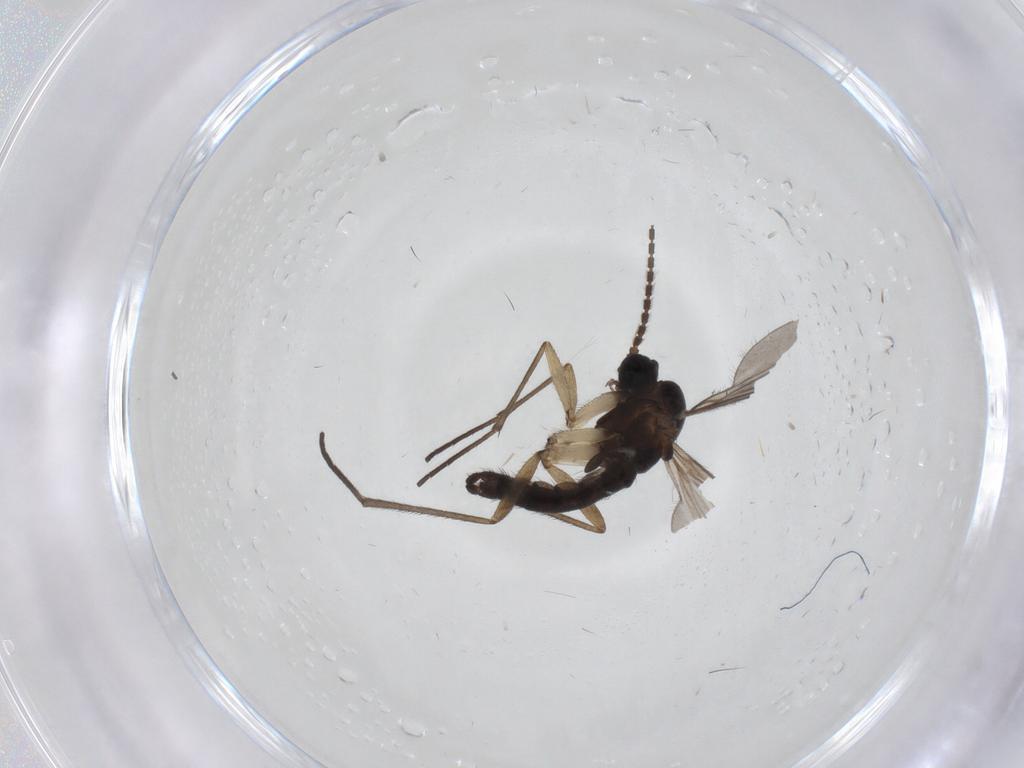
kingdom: Animalia
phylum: Arthropoda
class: Insecta
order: Diptera
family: Sciaridae
